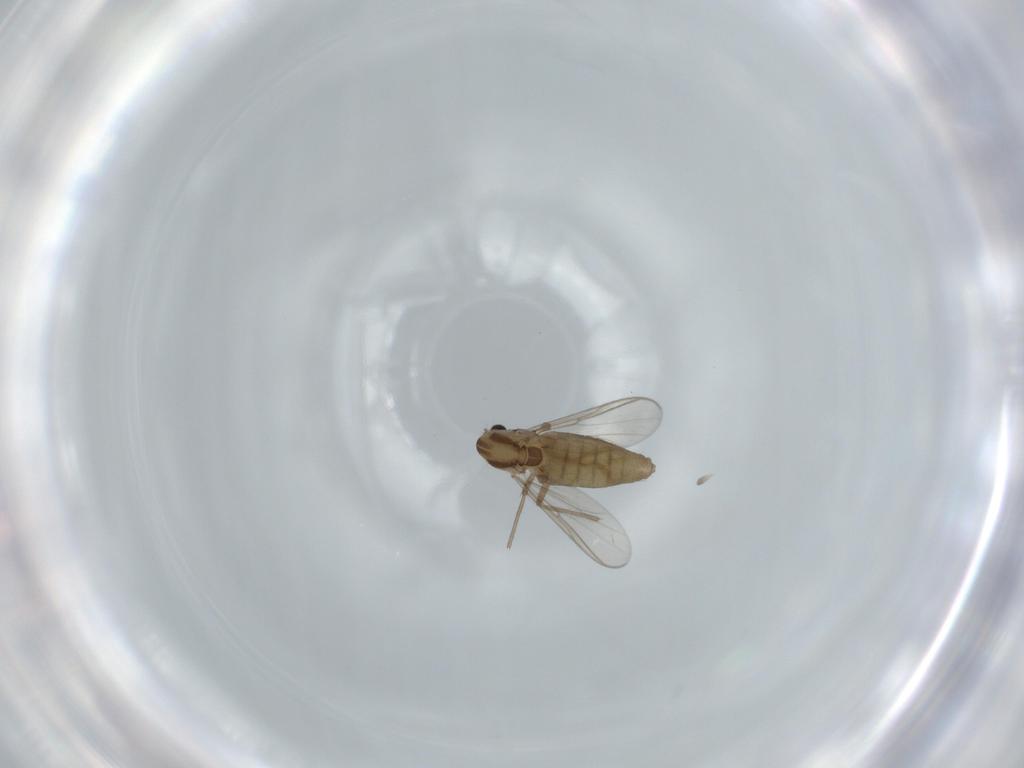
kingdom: Animalia
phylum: Arthropoda
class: Insecta
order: Diptera
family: Chironomidae
